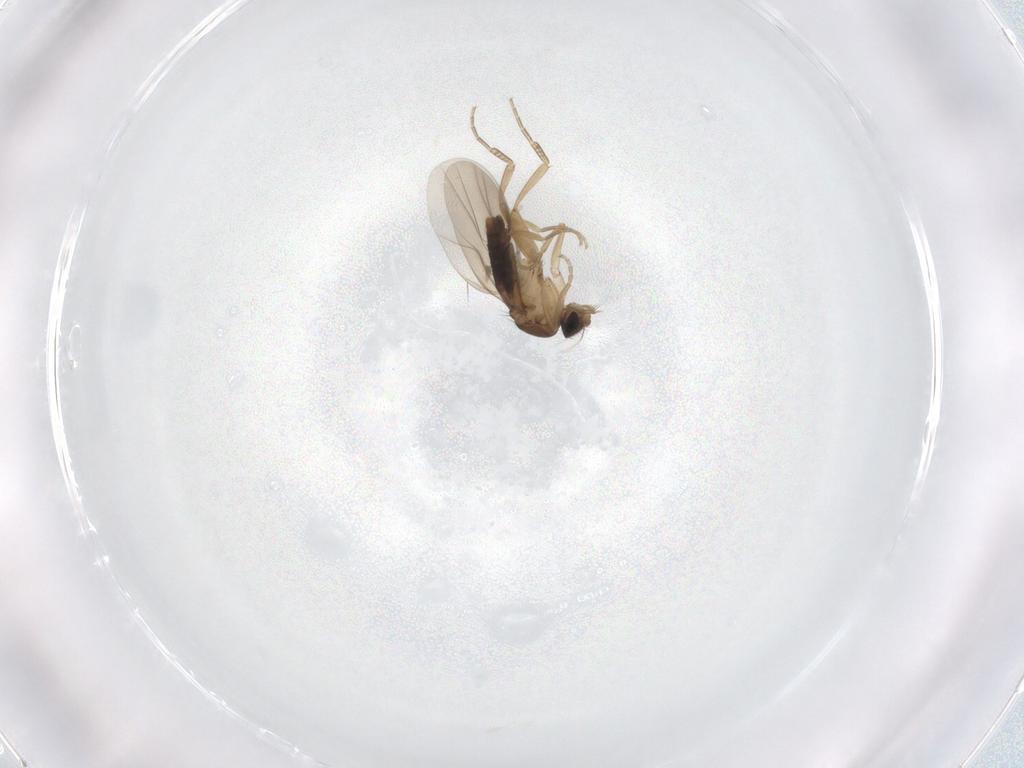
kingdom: Animalia
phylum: Arthropoda
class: Insecta
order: Diptera
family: Phoridae
